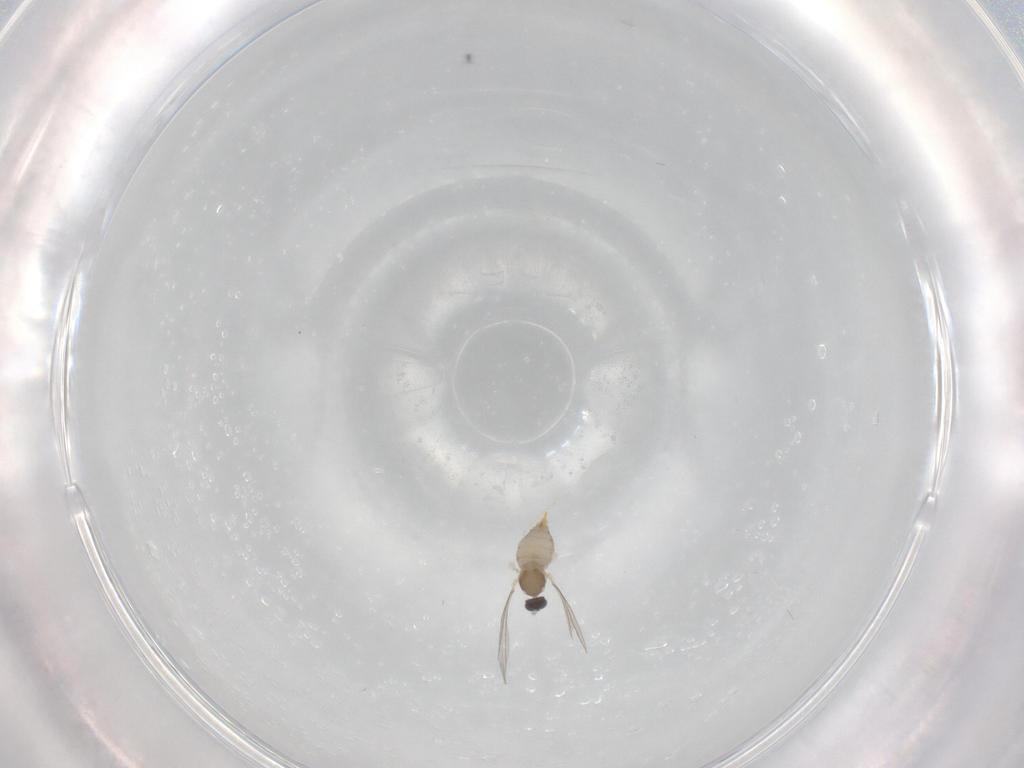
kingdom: Animalia
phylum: Arthropoda
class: Insecta
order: Diptera
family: Cecidomyiidae
